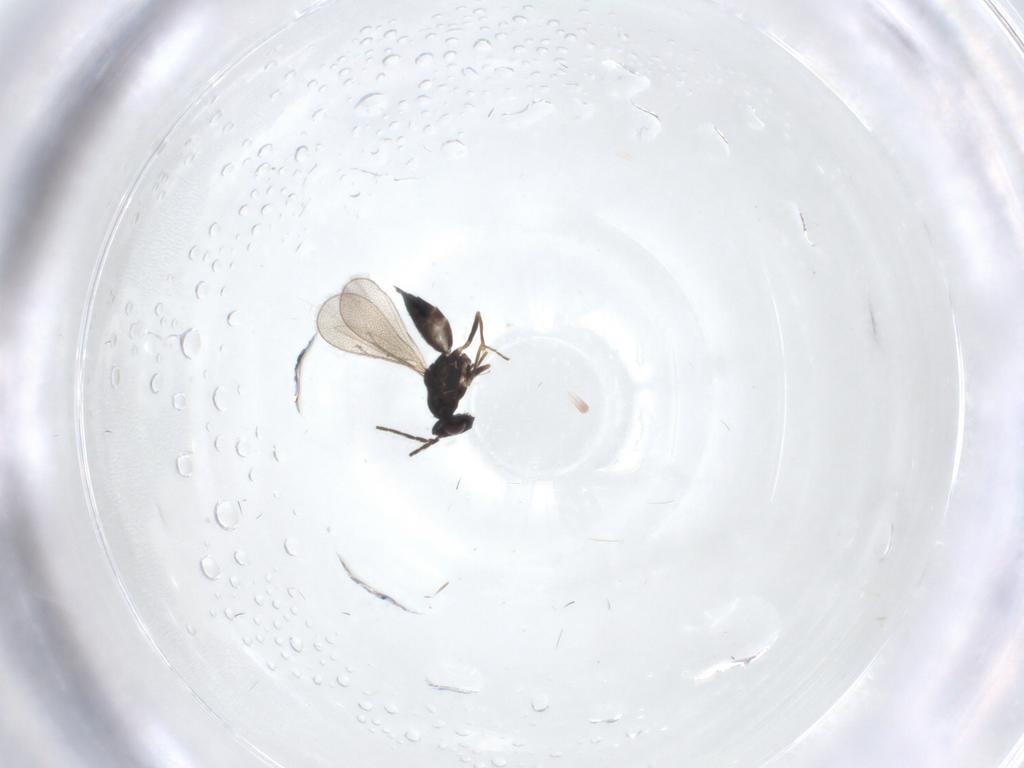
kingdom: Animalia
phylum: Arthropoda
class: Insecta
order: Hymenoptera
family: Eulophidae
